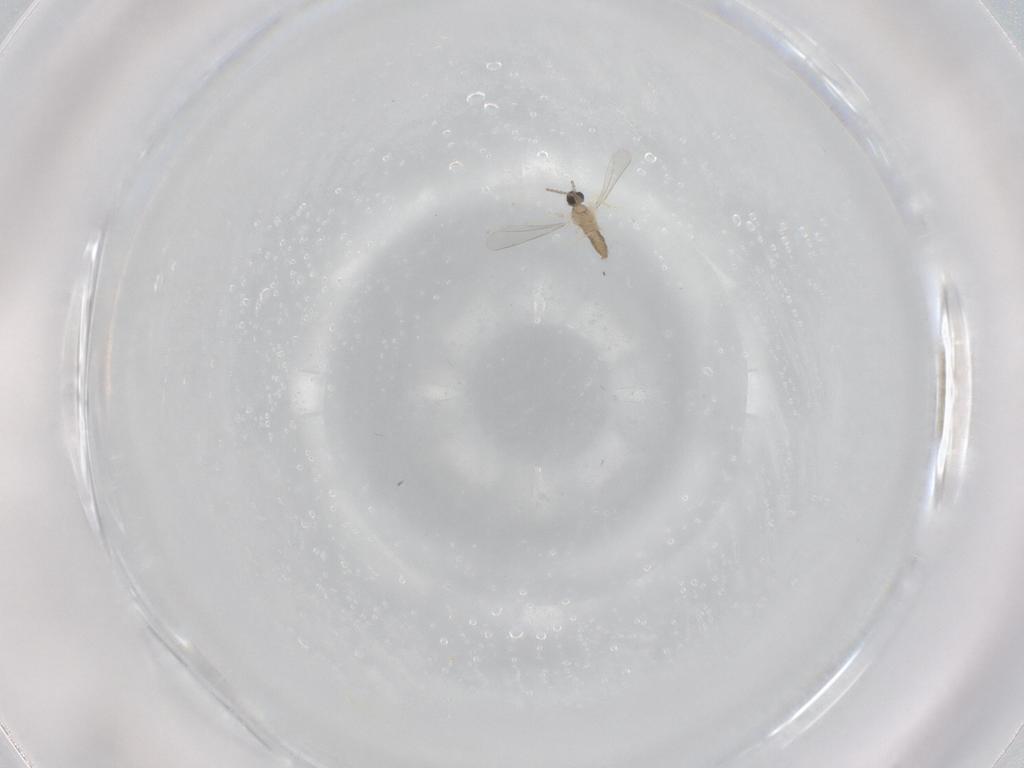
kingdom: Animalia
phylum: Arthropoda
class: Insecta
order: Diptera
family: Cecidomyiidae
